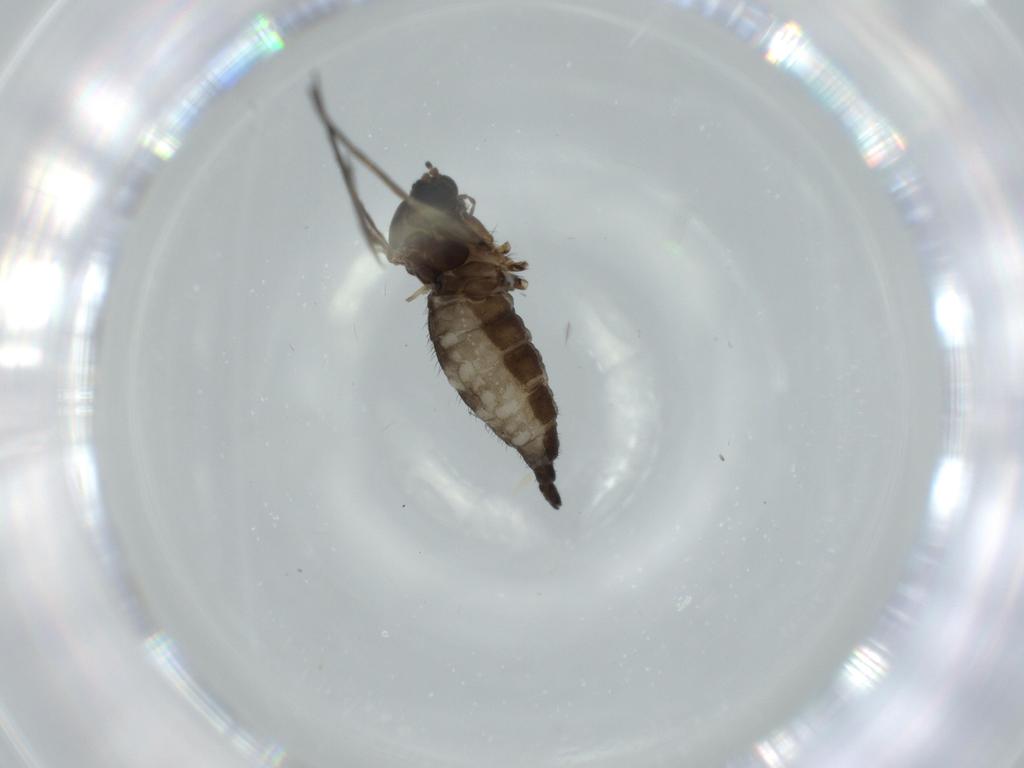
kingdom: Animalia
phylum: Arthropoda
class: Insecta
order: Diptera
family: Sciaridae
